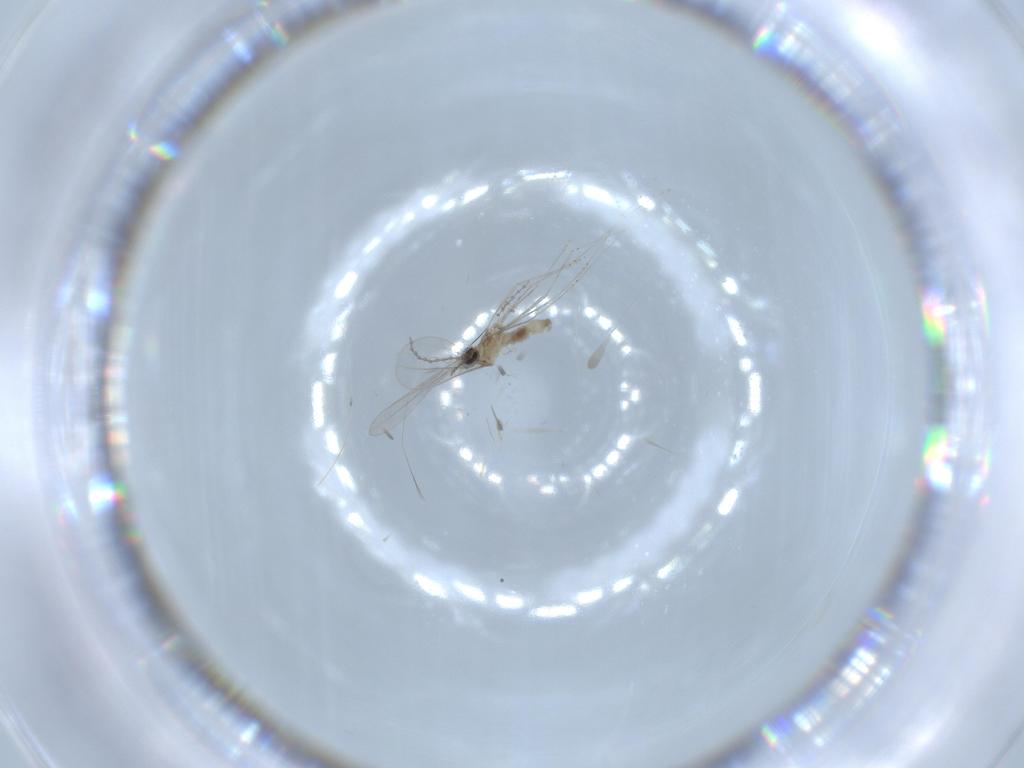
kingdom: Animalia
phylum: Arthropoda
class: Insecta
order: Diptera
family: Cecidomyiidae
